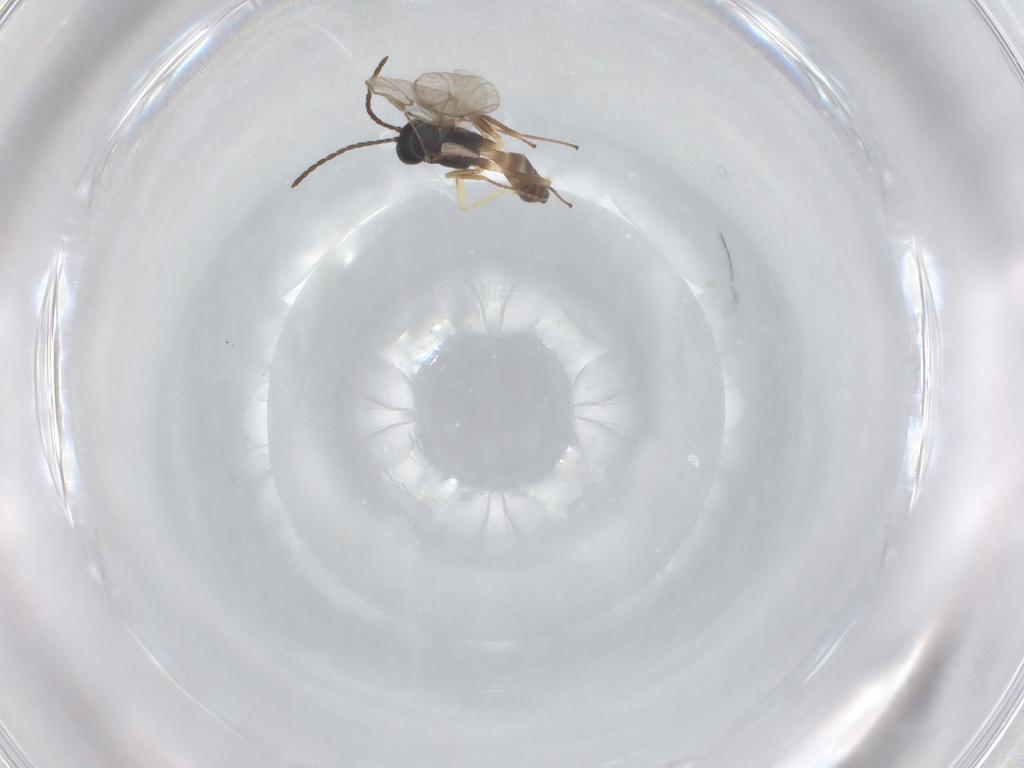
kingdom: Animalia
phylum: Arthropoda
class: Insecta
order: Hymenoptera
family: Braconidae
